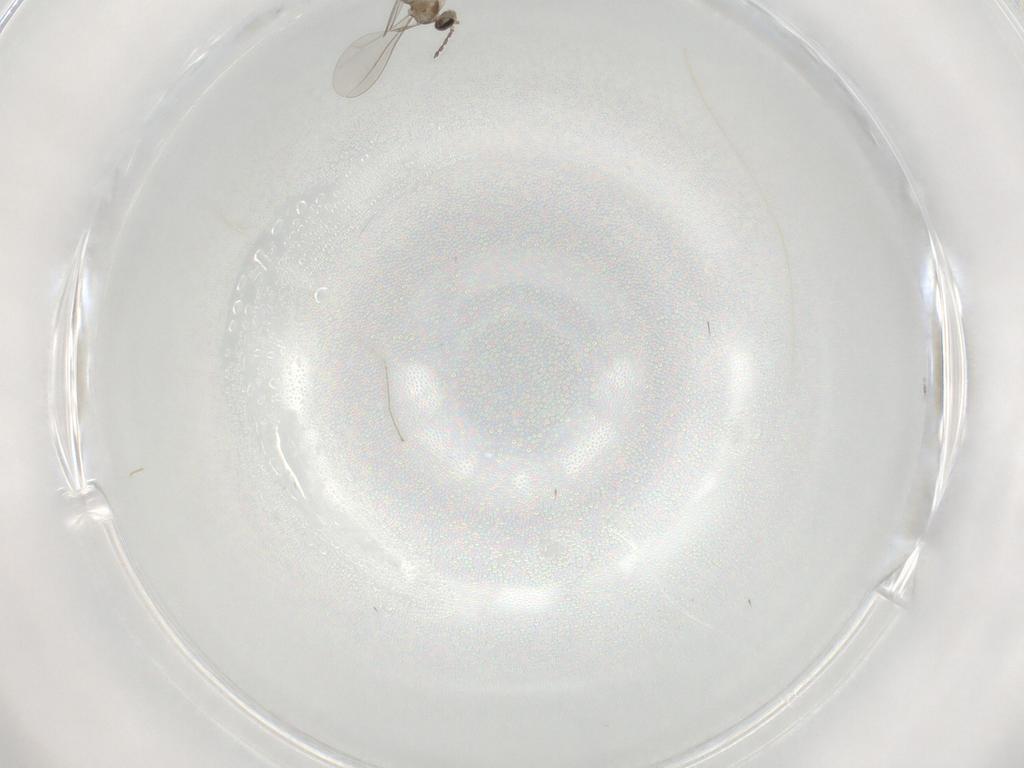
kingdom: Animalia
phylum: Arthropoda
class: Insecta
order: Diptera
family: Cecidomyiidae
